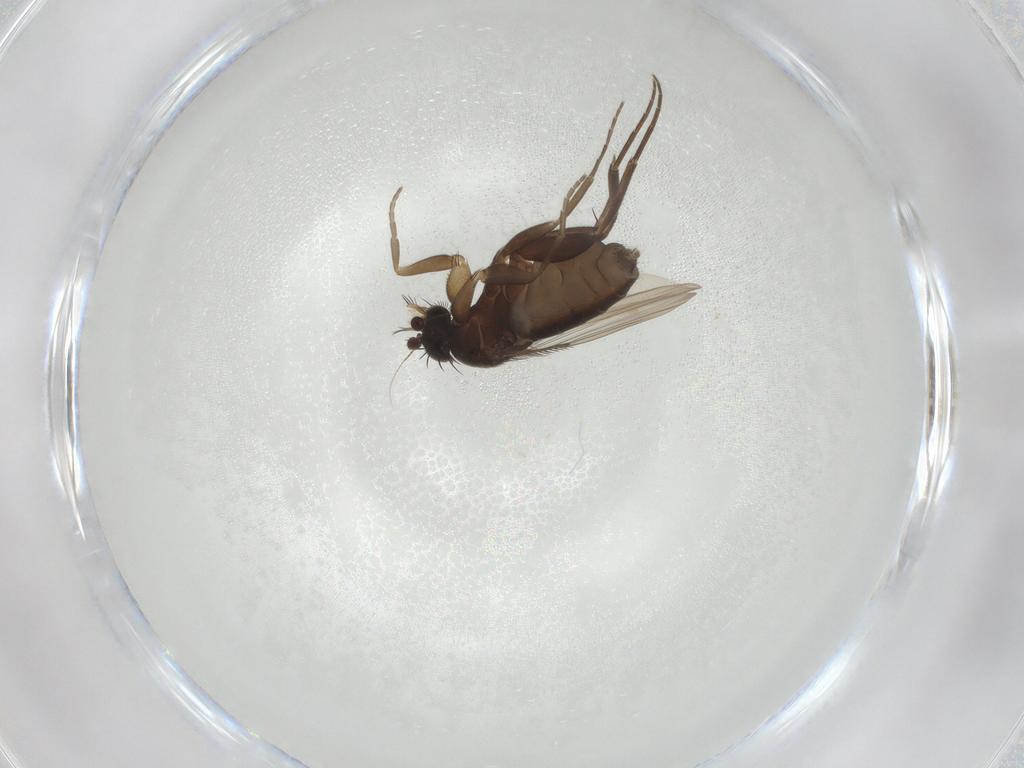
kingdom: Animalia
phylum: Arthropoda
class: Insecta
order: Diptera
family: Phoridae
